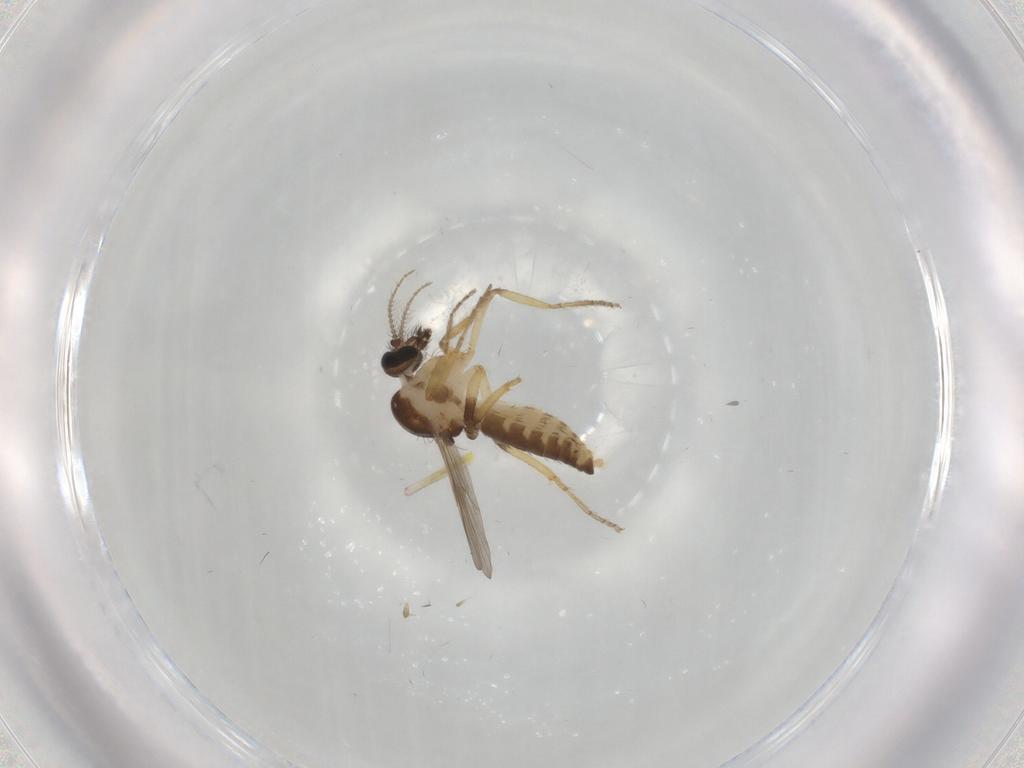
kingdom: Animalia
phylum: Arthropoda
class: Insecta
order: Diptera
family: Ceratopogonidae
